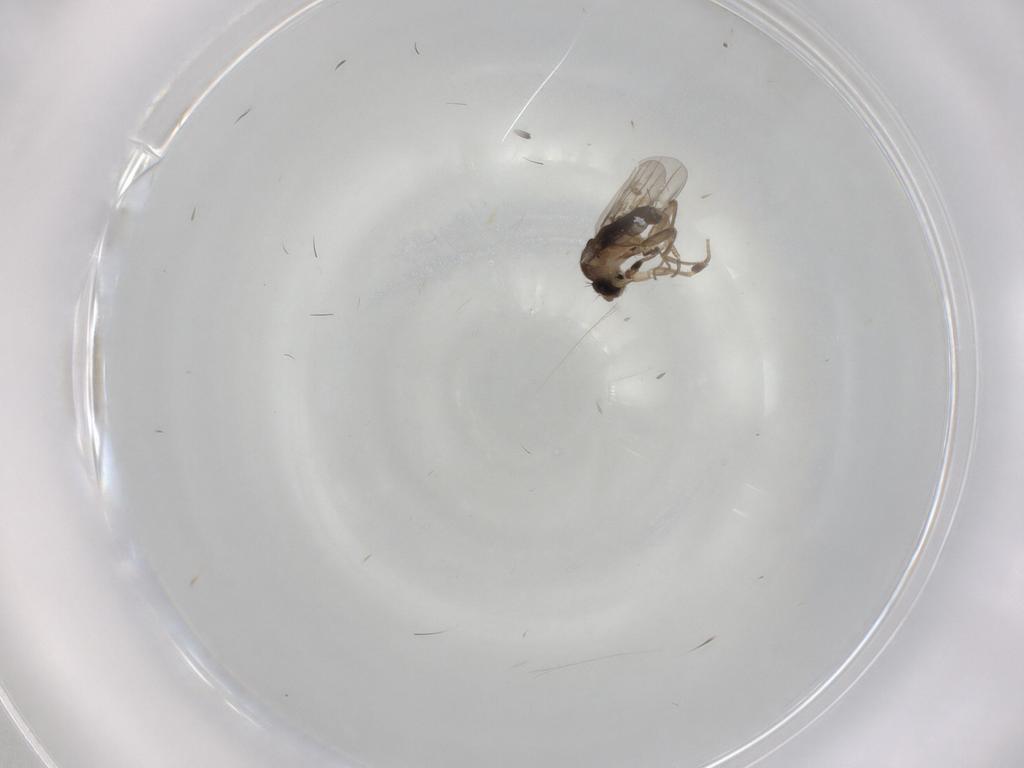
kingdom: Animalia
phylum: Arthropoda
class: Insecta
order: Diptera
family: Phoridae
